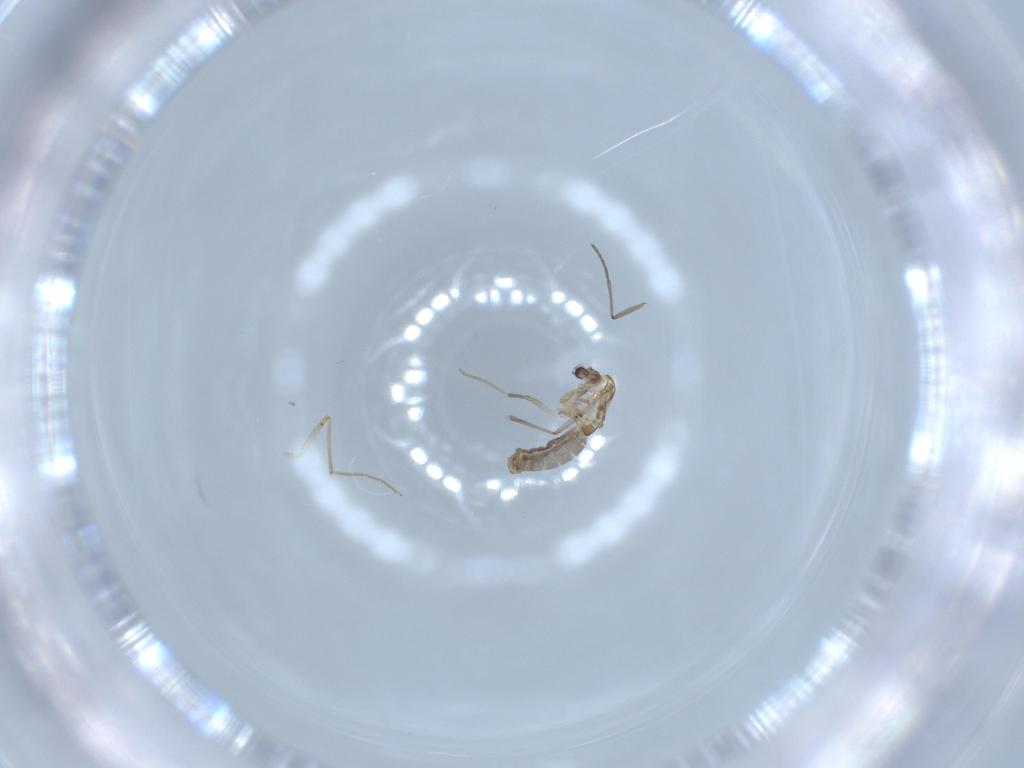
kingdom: Animalia
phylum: Arthropoda
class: Insecta
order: Diptera
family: Chironomidae
